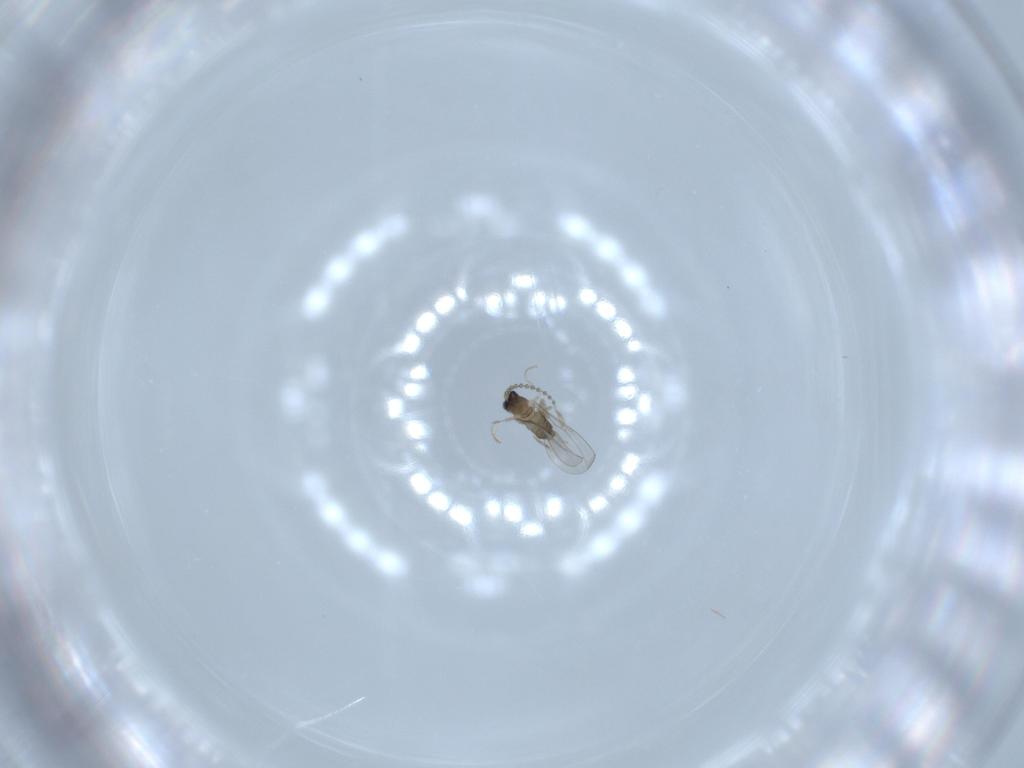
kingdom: Animalia
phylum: Arthropoda
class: Insecta
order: Diptera
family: Cecidomyiidae
